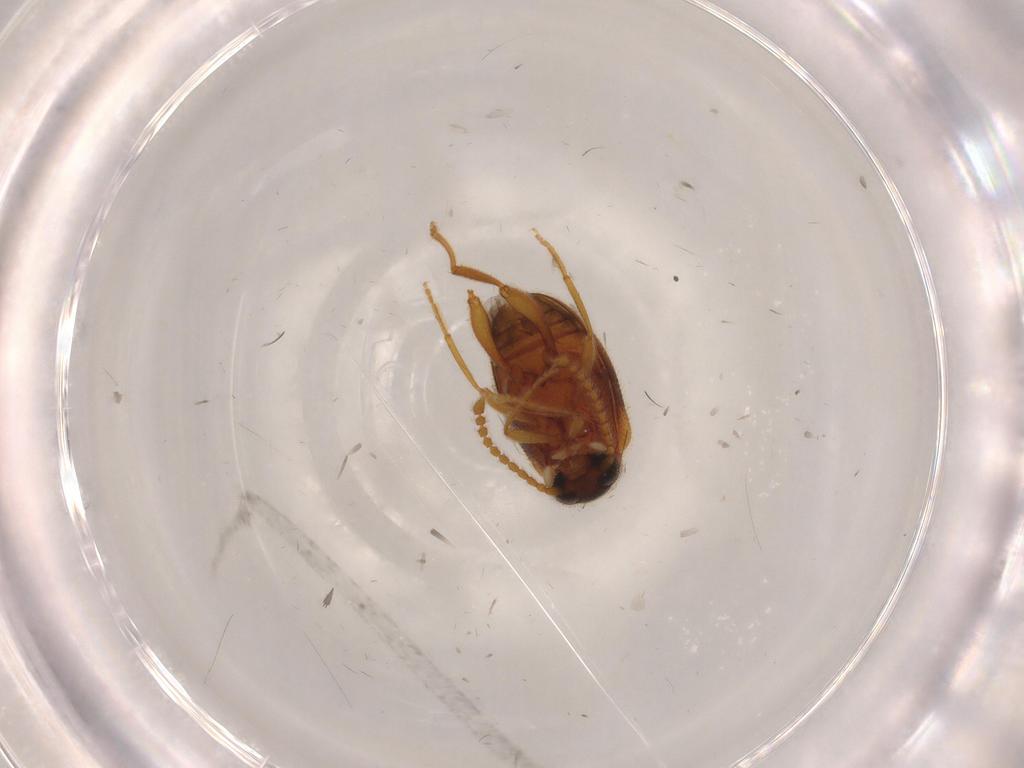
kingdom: Animalia
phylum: Arthropoda
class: Insecta
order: Coleoptera
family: Aderidae
